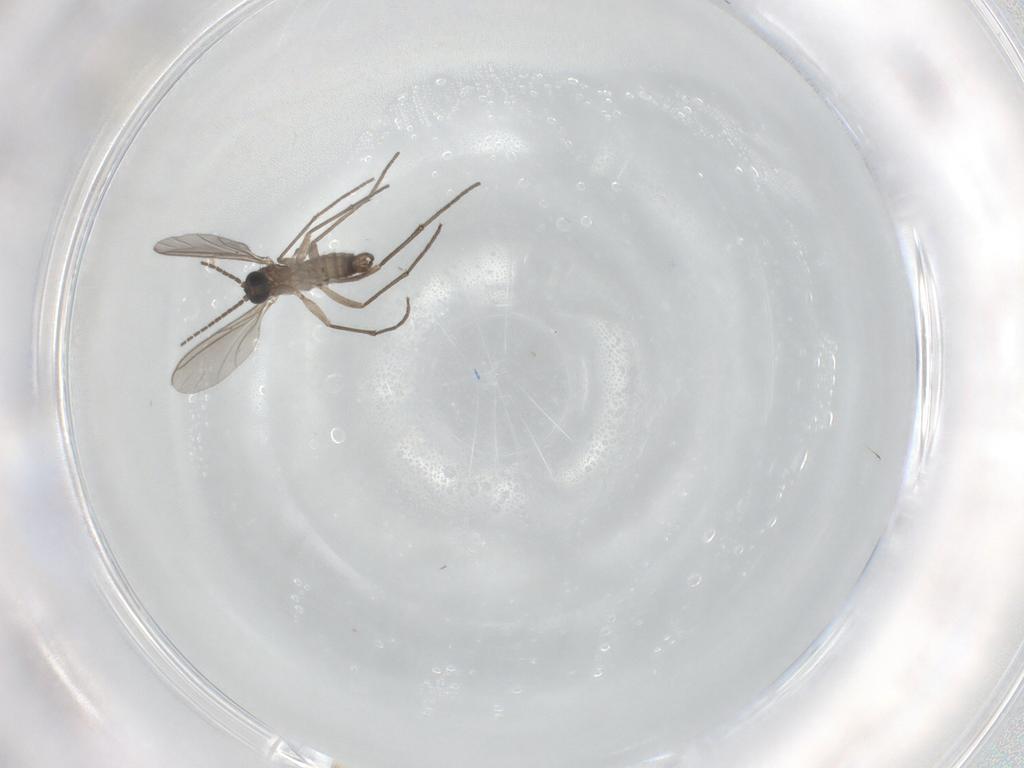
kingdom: Animalia
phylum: Arthropoda
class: Insecta
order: Diptera
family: Sciaridae
